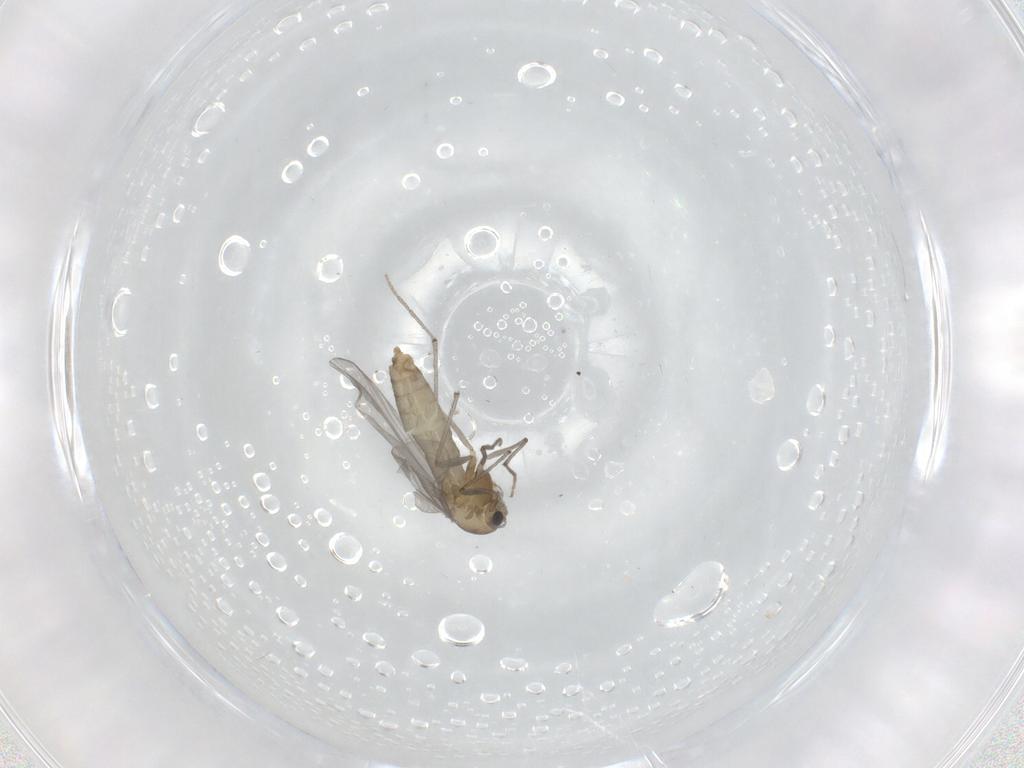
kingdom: Animalia
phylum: Arthropoda
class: Insecta
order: Diptera
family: Chironomidae
